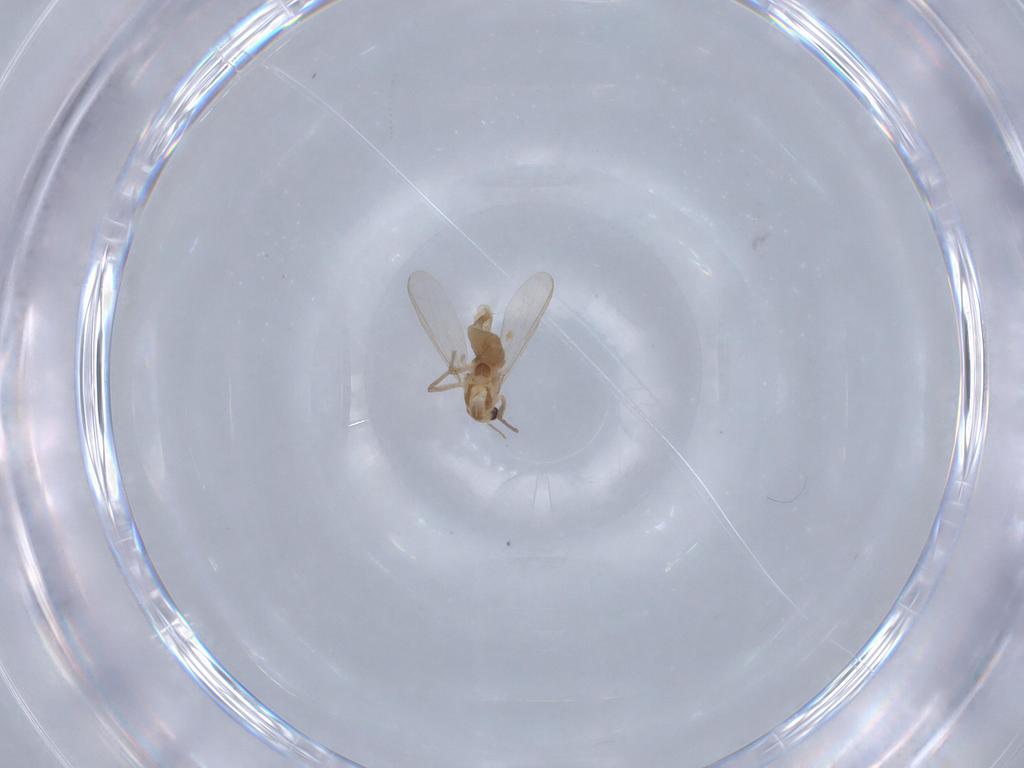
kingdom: Animalia
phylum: Arthropoda
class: Insecta
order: Diptera
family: Chironomidae
